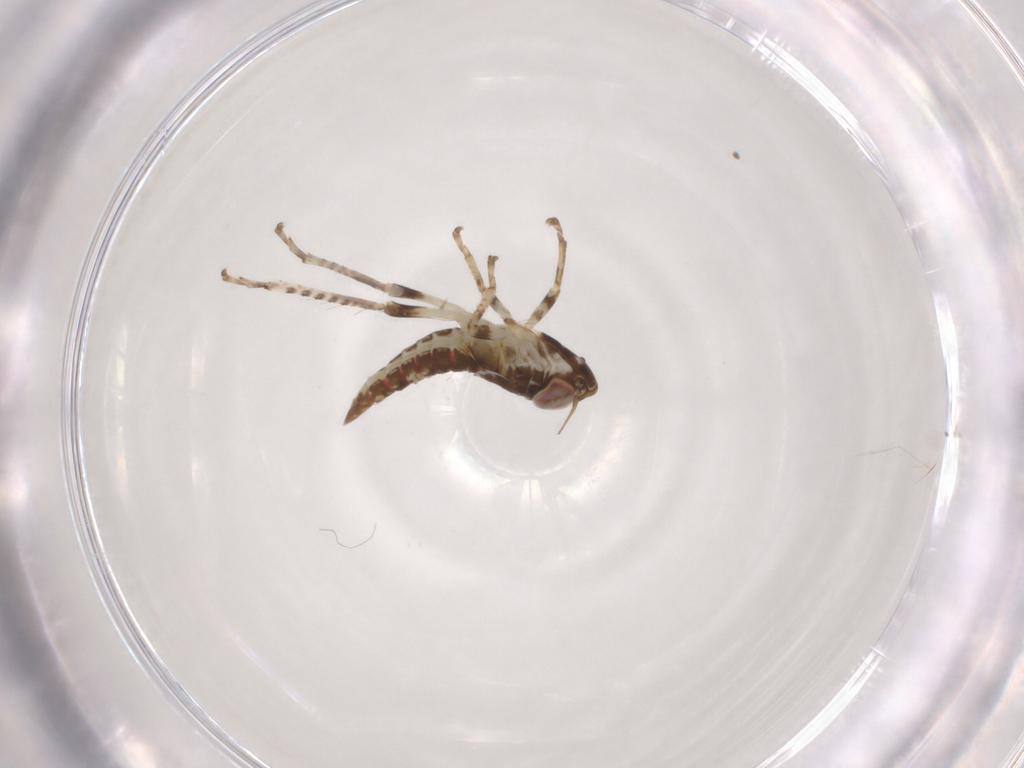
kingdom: Animalia
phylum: Arthropoda
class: Insecta
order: Hemiptera
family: Cicadellidae
